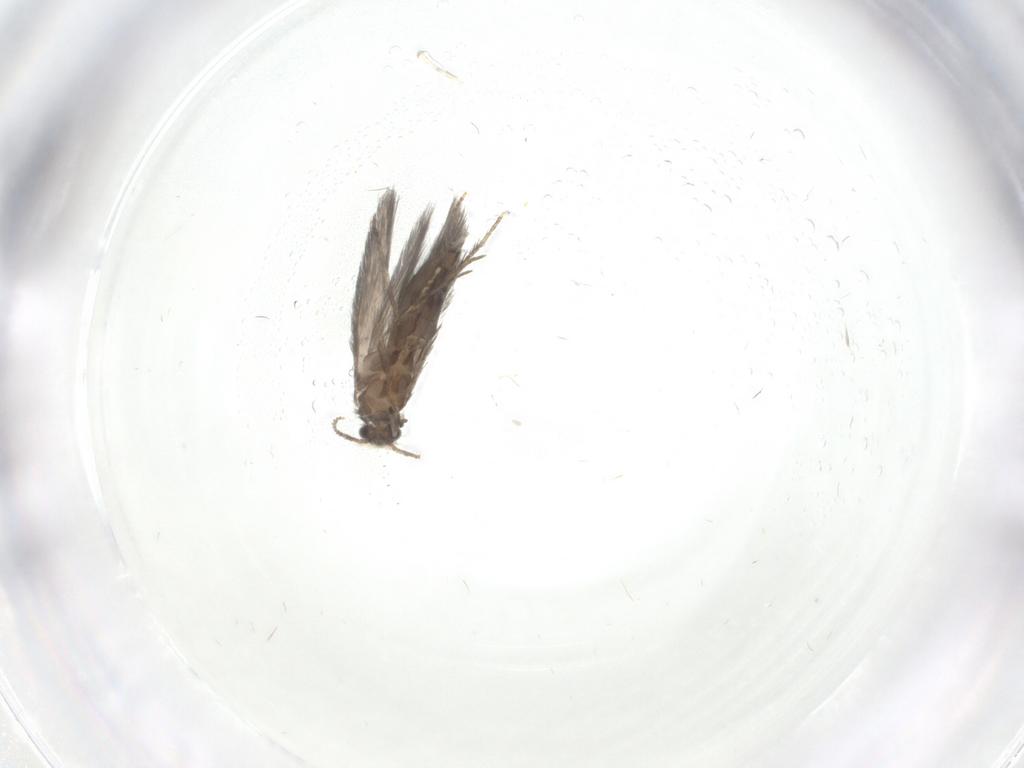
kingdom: Animalia
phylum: Arthropoda
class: Insecta
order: Trichoptera
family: Hydroptilidae
